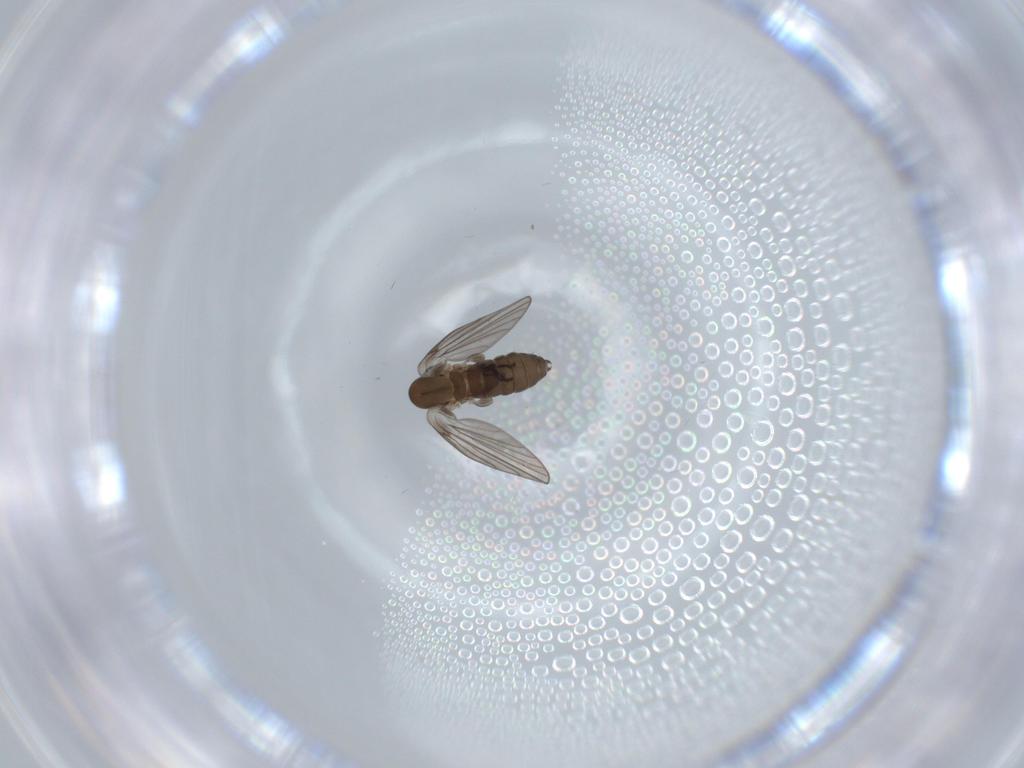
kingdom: Animalia
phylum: Arthropoda
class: Insecta
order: Diptera
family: Psychodidae
